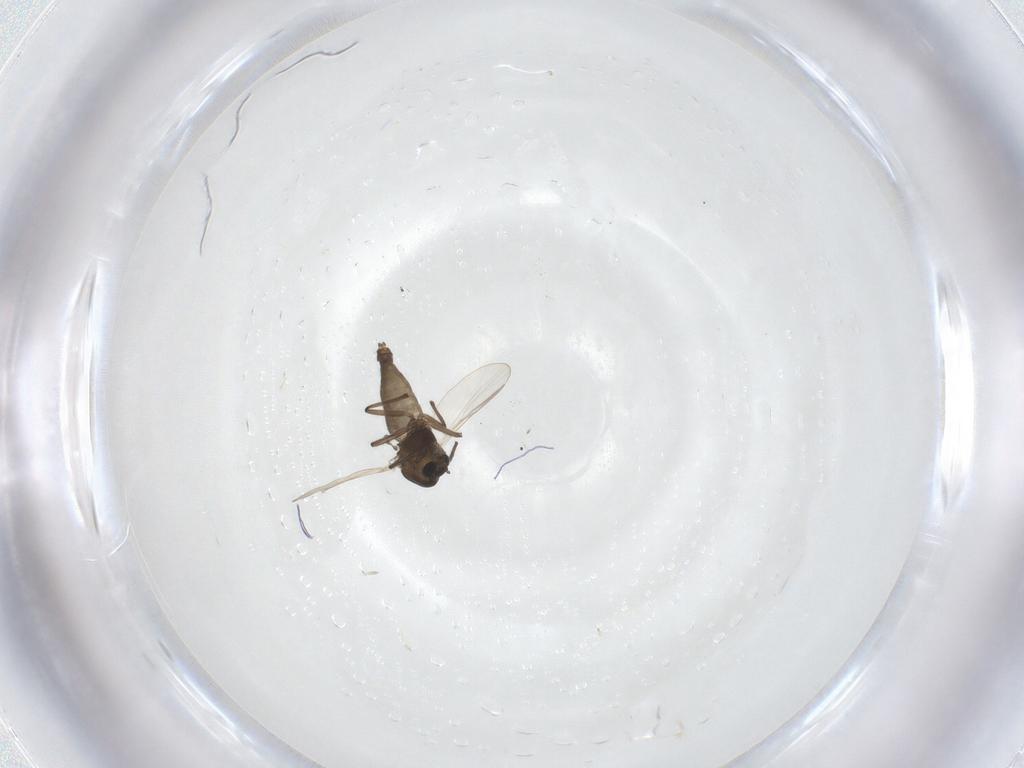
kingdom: Animalia
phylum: Arthropoda
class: Insecta
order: Diptera
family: Chironomidae
